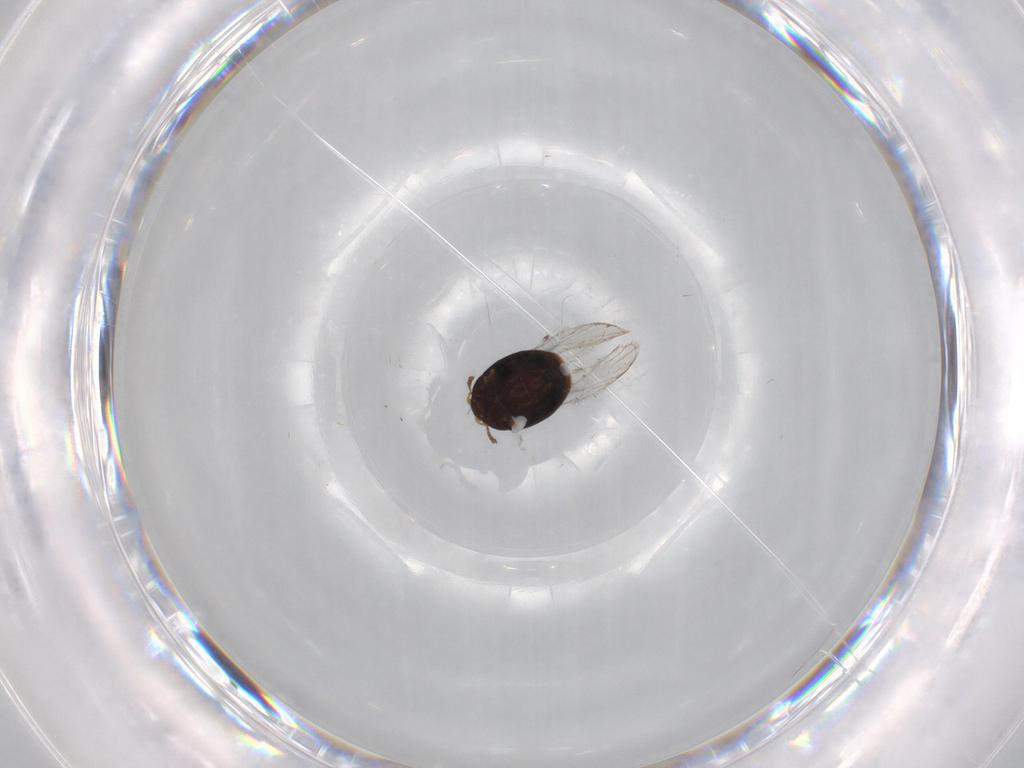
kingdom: Animalia
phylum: Arthropoda
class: Insecta
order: Coleoptera
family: Corylophidae
